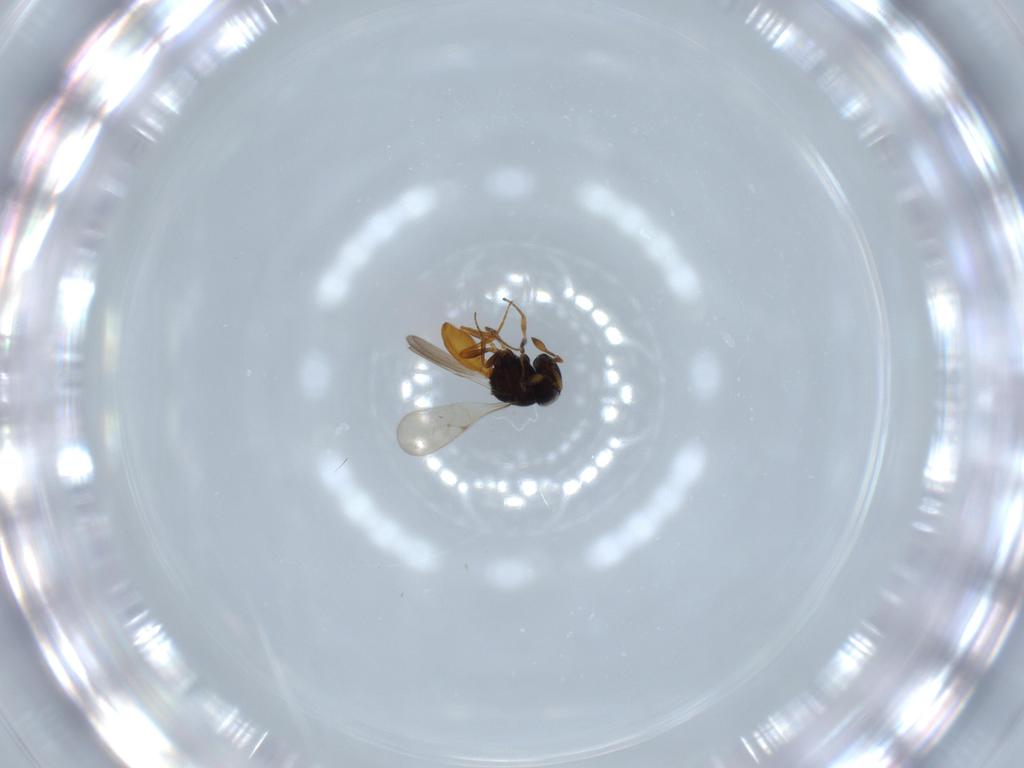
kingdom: Animalia
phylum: Arthropoda
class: Insecta
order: Hymenoptera
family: Scelionidae
